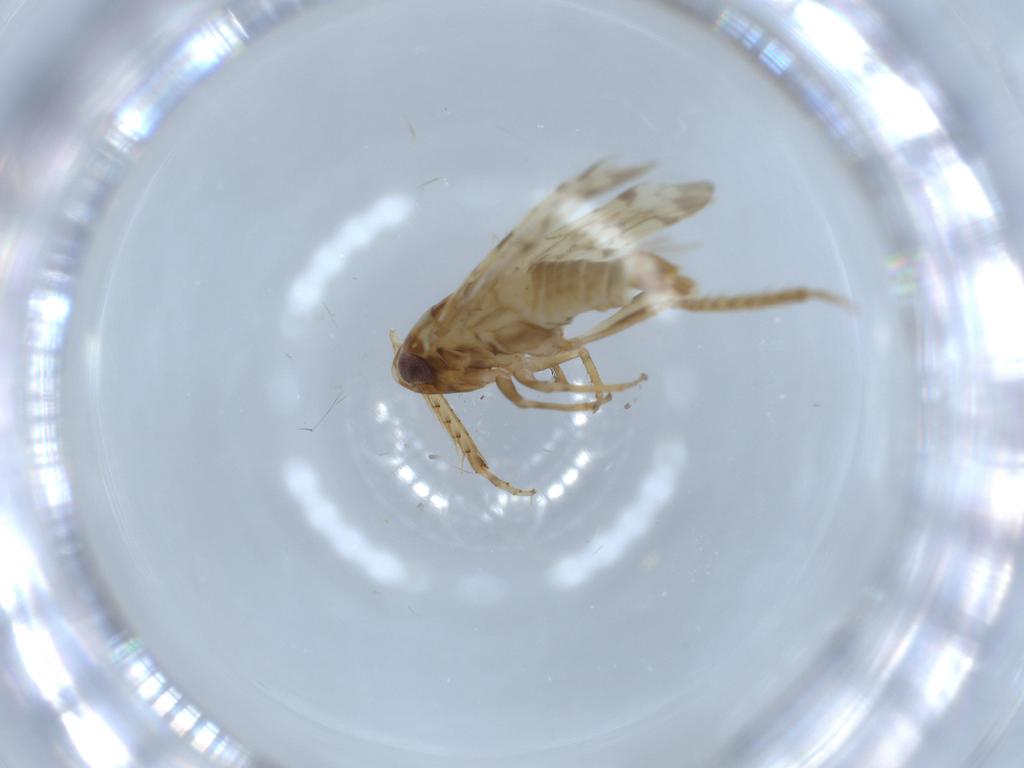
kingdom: Animalia
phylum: Arthropoda
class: Insecta
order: Hemiptera
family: Cicadellidae
